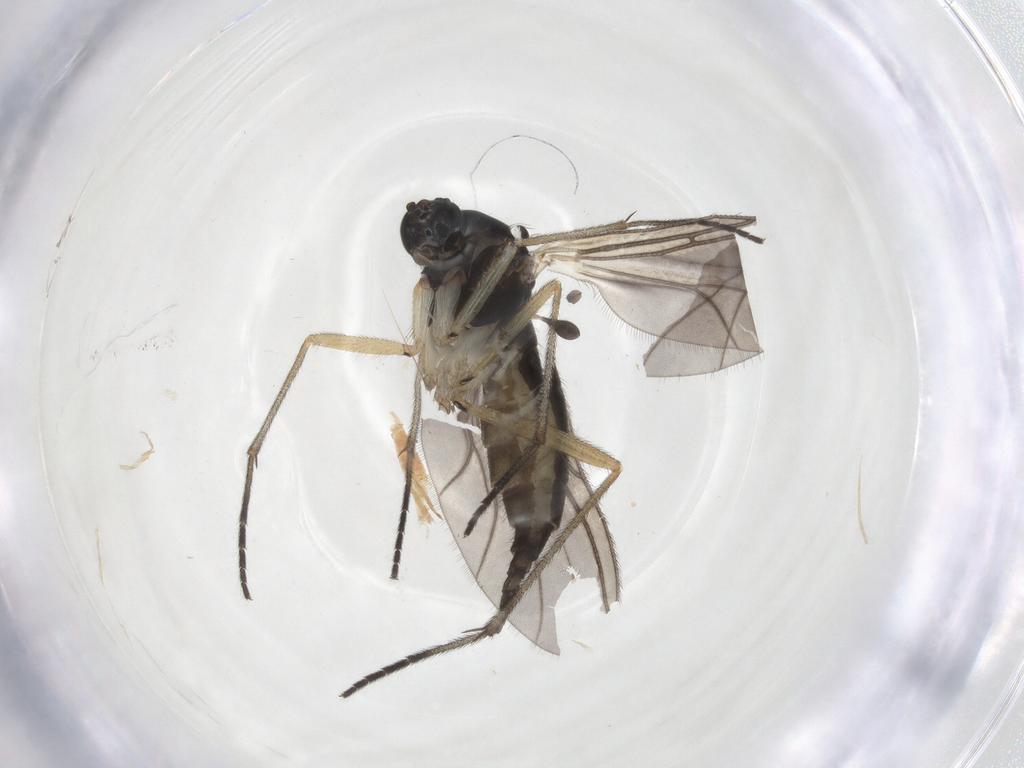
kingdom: Animalia
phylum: Arthropoda
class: Insecta
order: Diptera
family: Sciaridae
